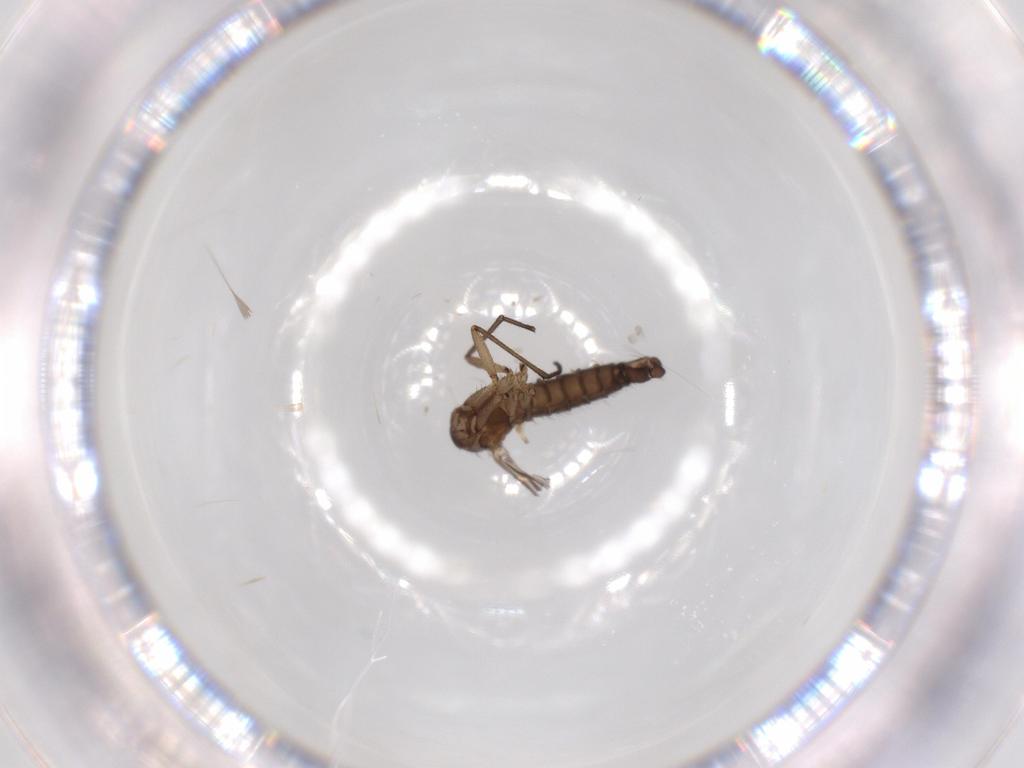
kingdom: Animalia
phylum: Arthropoda
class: Insecta
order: Diptera
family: Sciaridae
